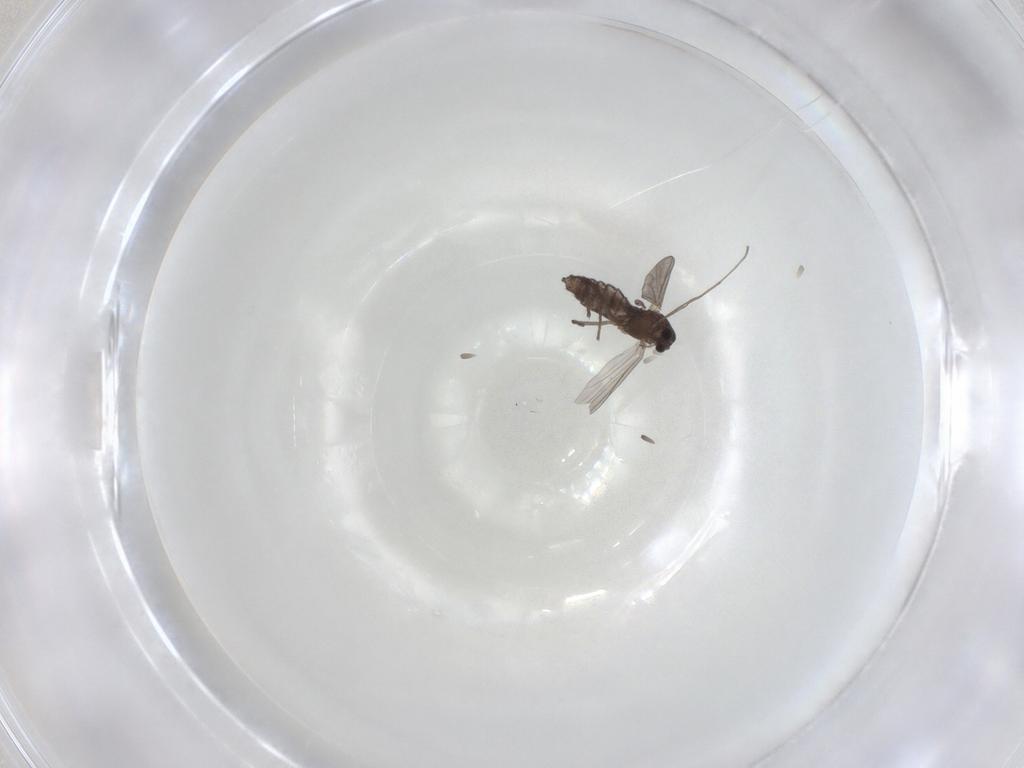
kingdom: Animalia
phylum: Arthropoda
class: Insecta
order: Diptera
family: Chironomidae
